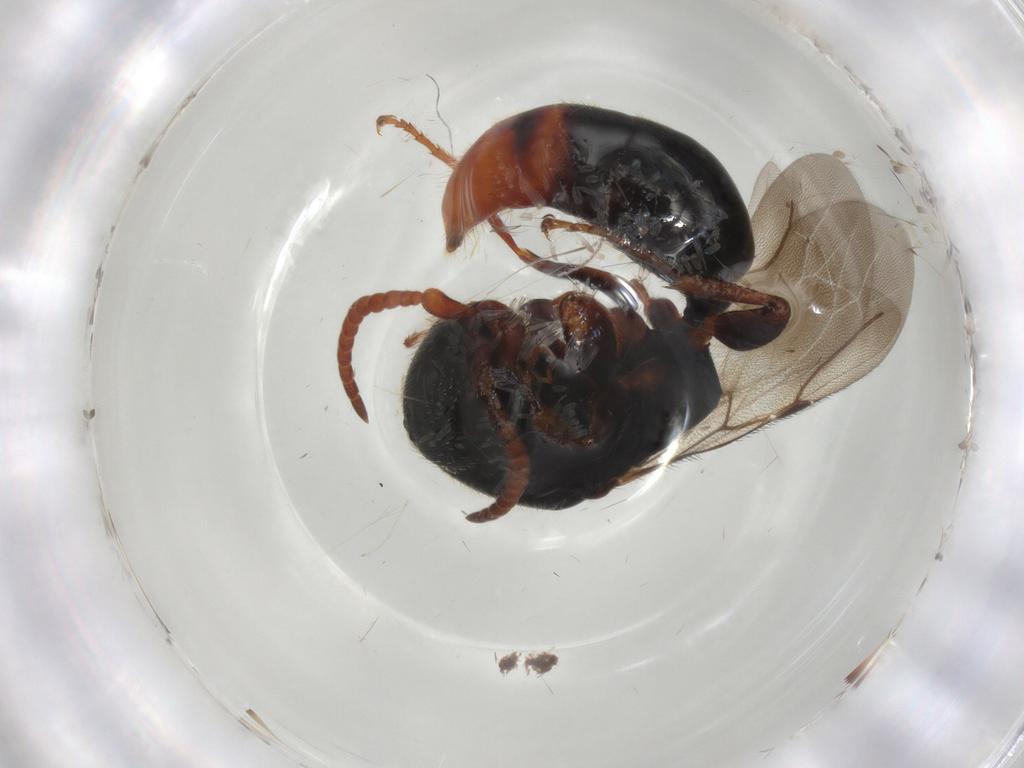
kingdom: Animalia
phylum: Arthropoda
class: Insecta
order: Hymenoptera
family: Bethylidae
